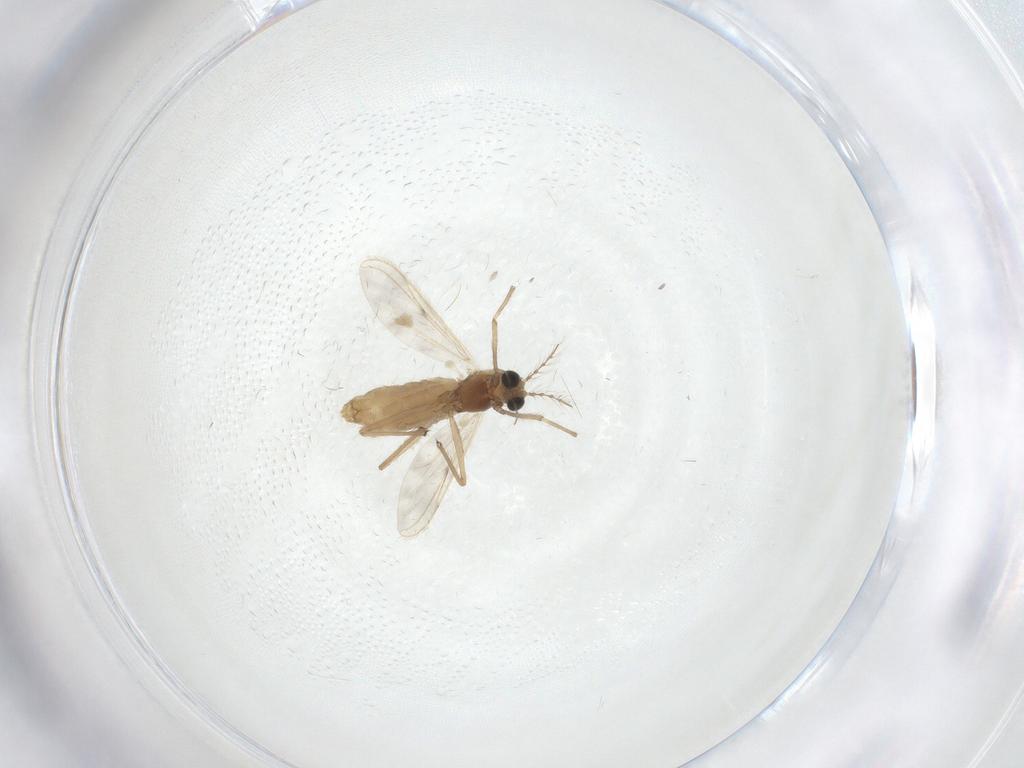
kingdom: Animalia
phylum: Arthropoda
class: Insecta
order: Diptera
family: Chironomidae
